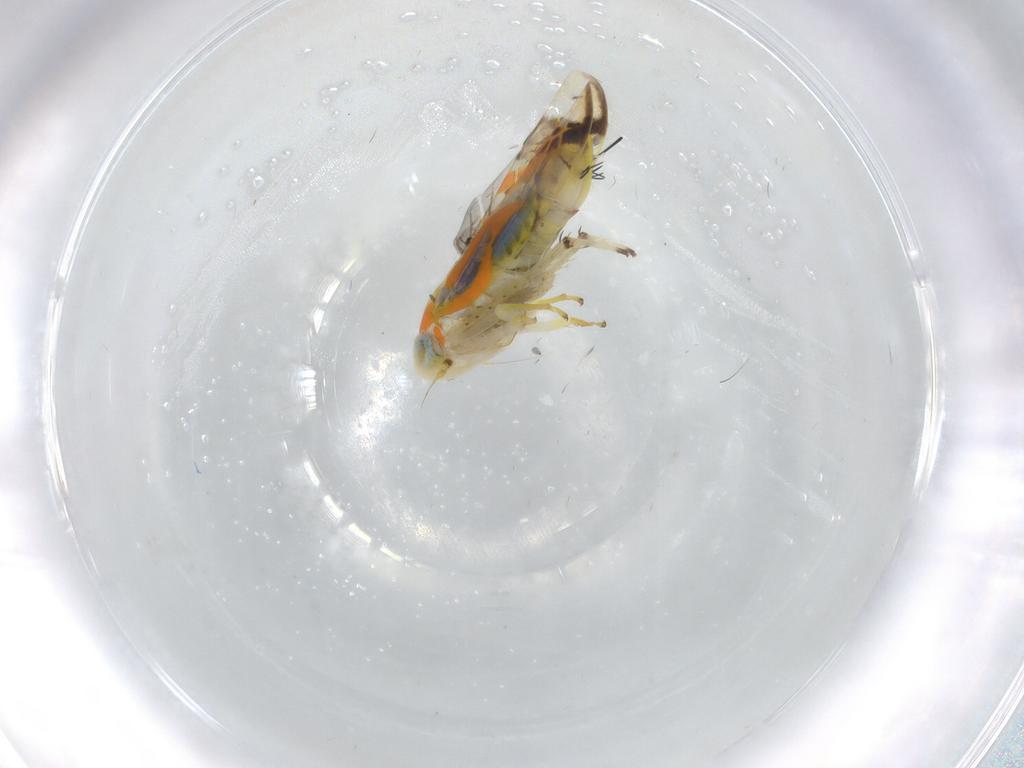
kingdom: Animalia
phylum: Arthropoda
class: Insecta
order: Hemiptera
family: Cicadellidae
